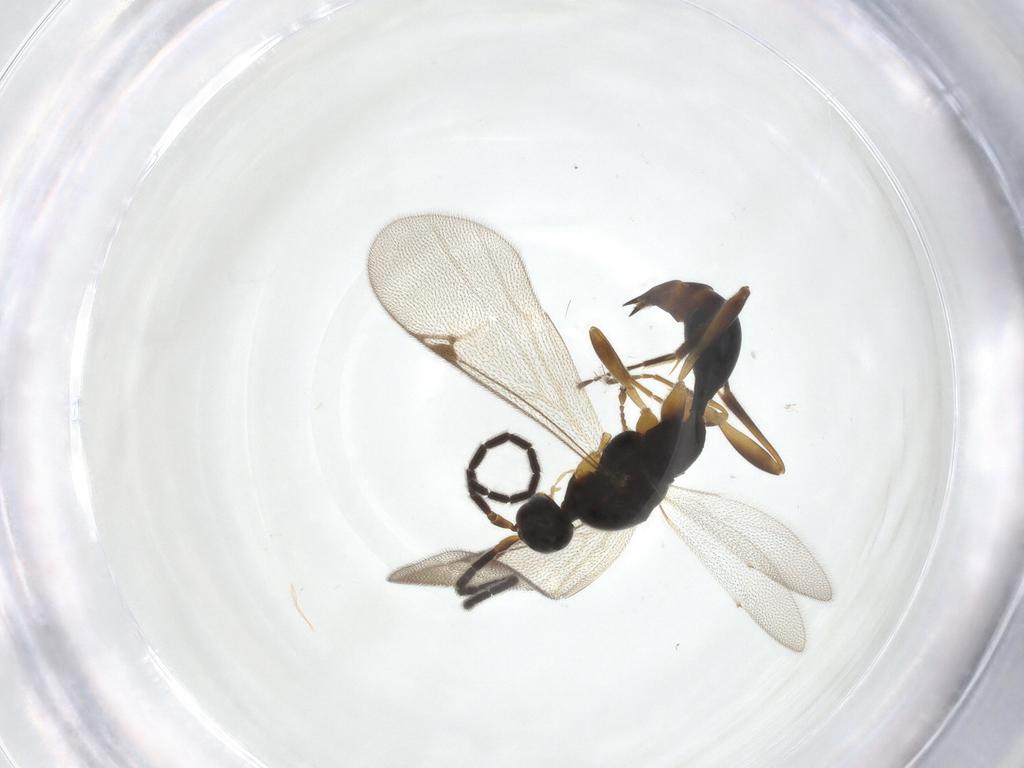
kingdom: Animalia
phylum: Arthropoda
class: Insecta
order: Hymenoptera
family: Proctotrupidae
